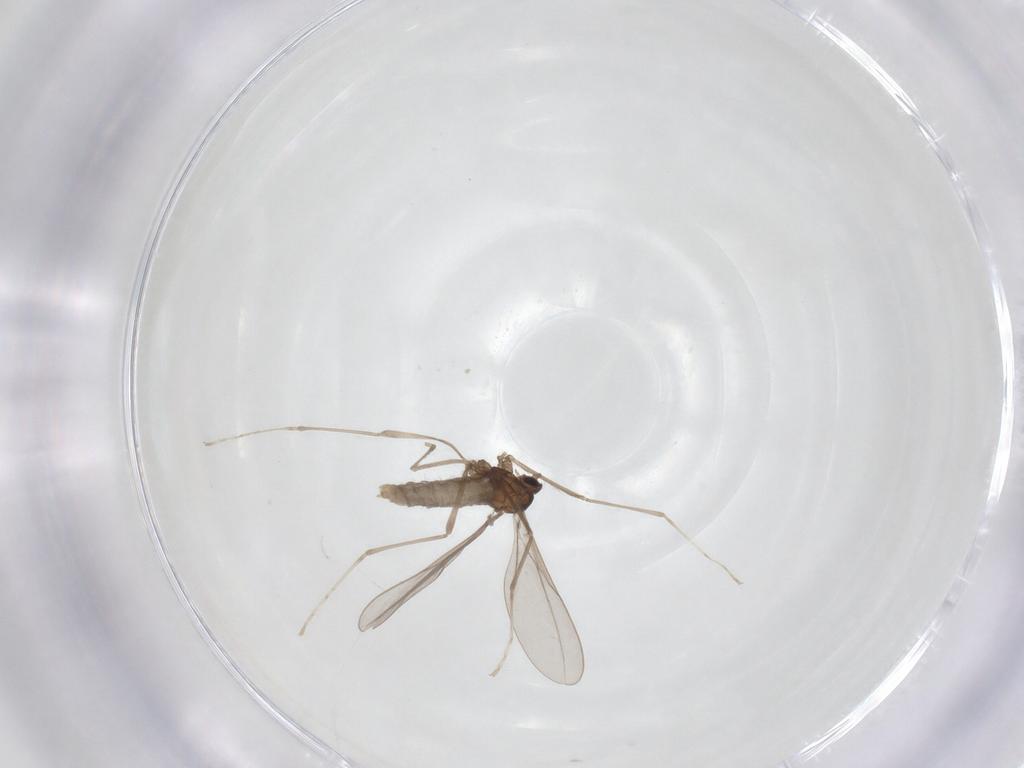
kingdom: Animalia
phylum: Arthropoda
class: Insecta
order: Diptera
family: Cecidomyiidae
